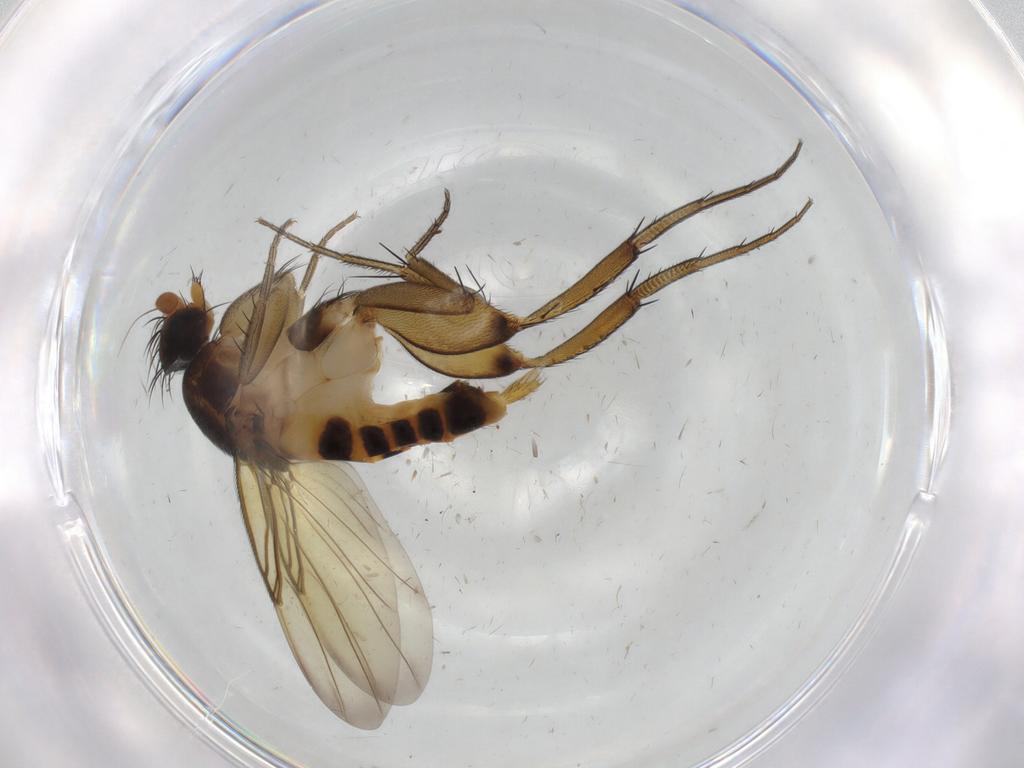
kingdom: Animalia
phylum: Arthropoda
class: Insecta
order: Diptera
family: Phoridae
